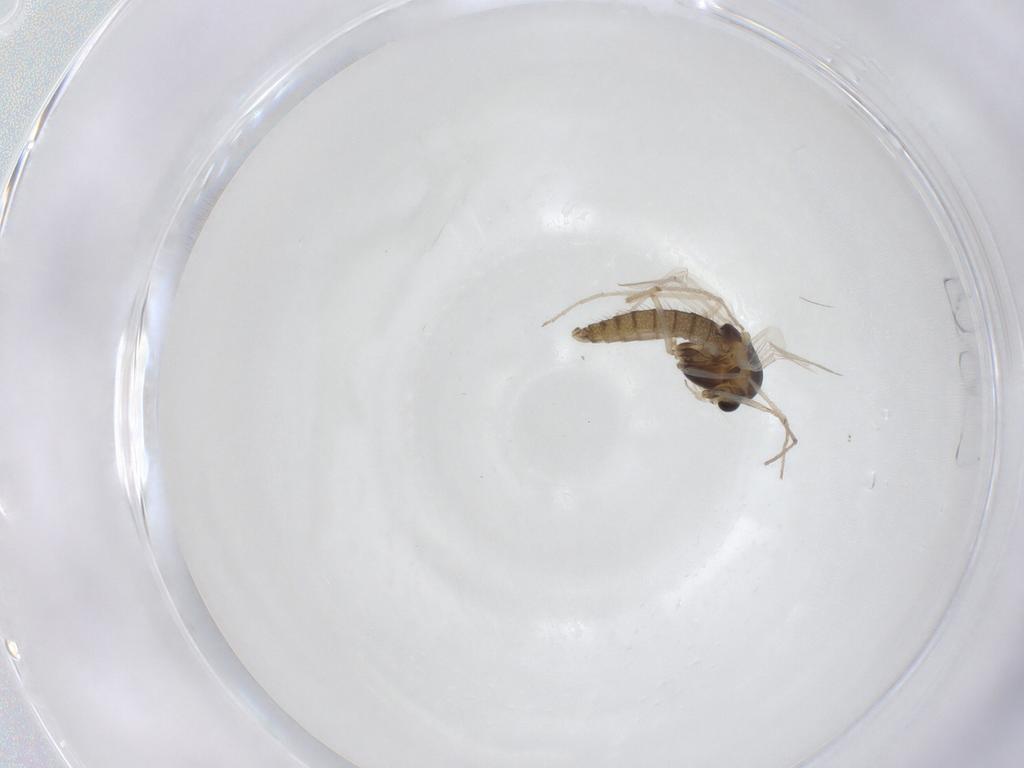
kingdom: Animalia
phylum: Arthropoda
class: Insecta
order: Diptera
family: Chironomidae
